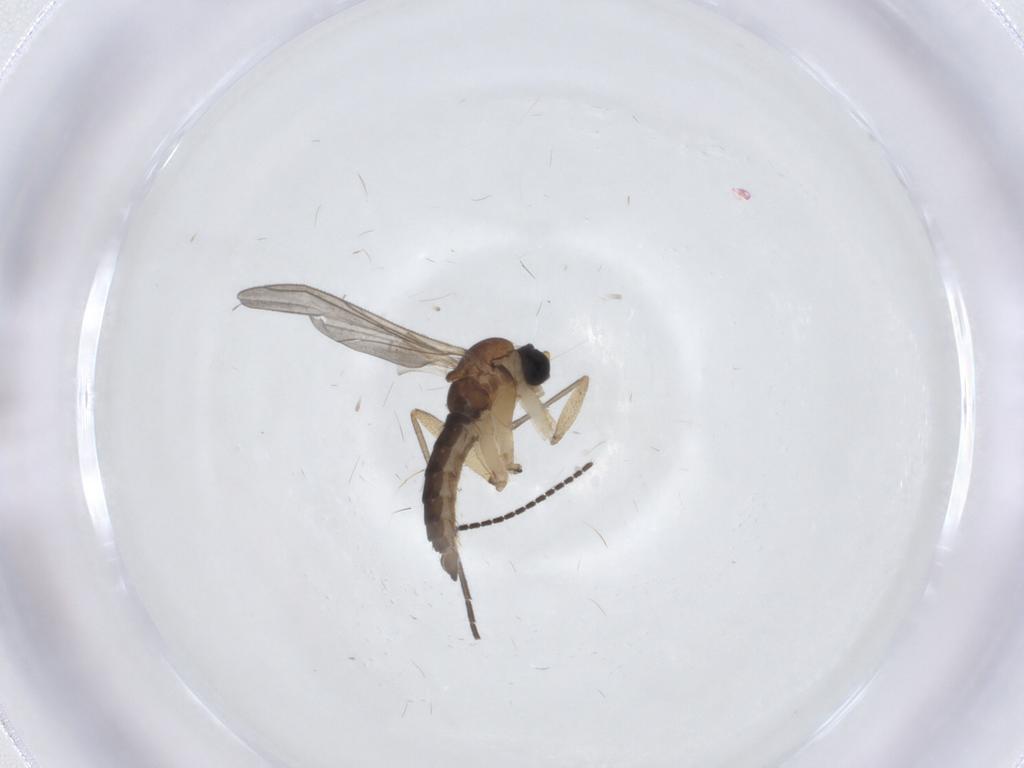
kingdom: Animalia
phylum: Arthropoda
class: Insecta
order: Diptera
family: Sciaridae
